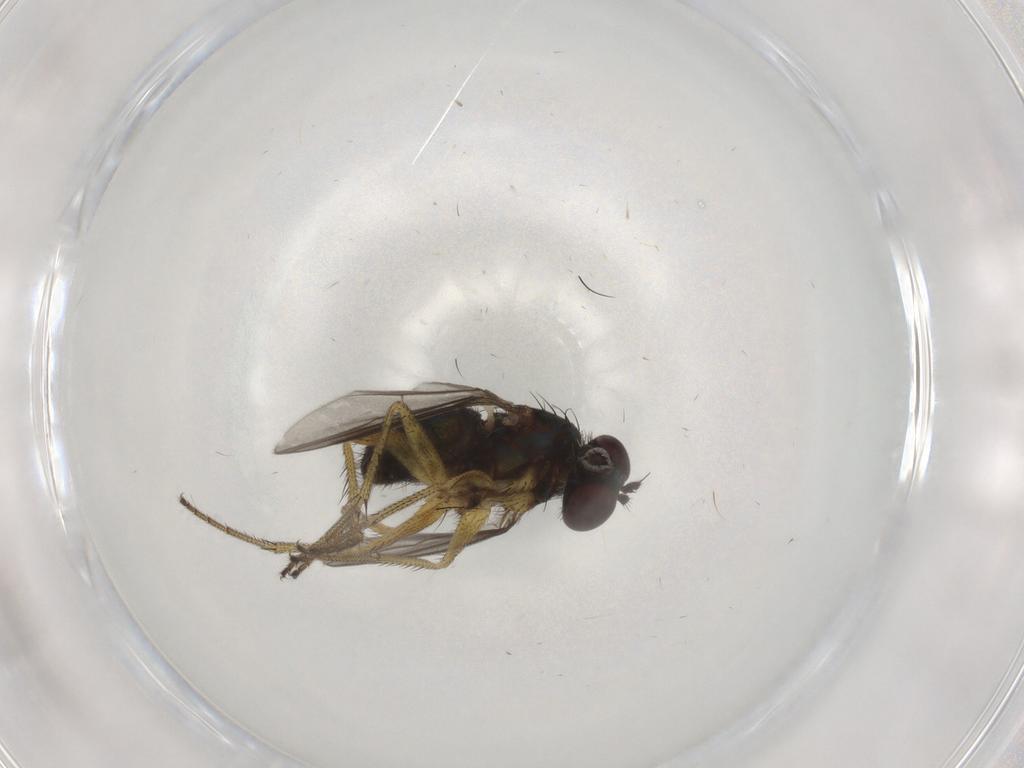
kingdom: Animalia
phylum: Arthropoda
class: Insecta
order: Diptera
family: Dolichopodidae
